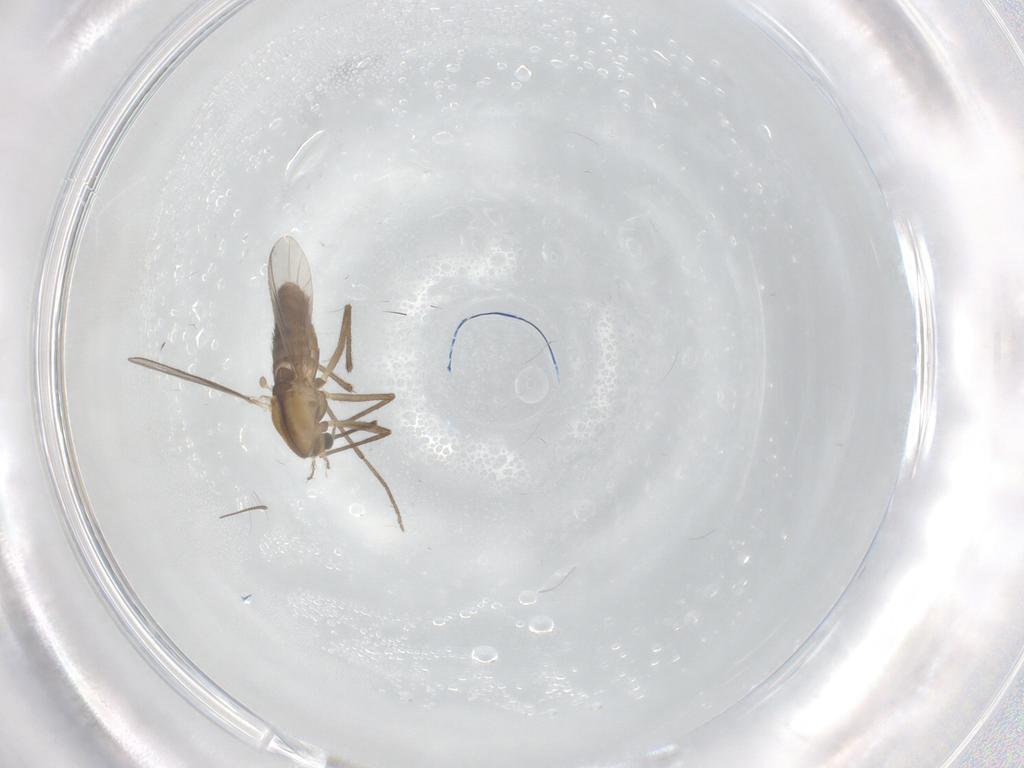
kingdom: Animalia
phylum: Arthropoda
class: Insecta
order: Diptera
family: Chironomidae
